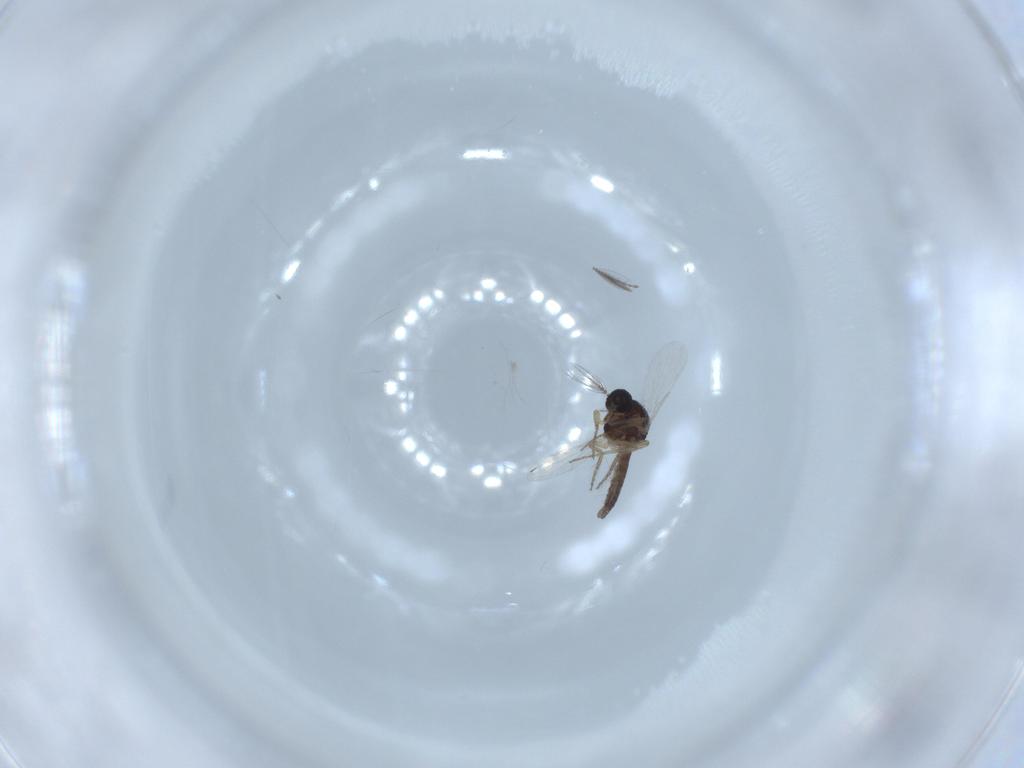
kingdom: Animalia
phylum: Arthropoda
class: Insecta
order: Diptera
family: Ceratopogonidae
